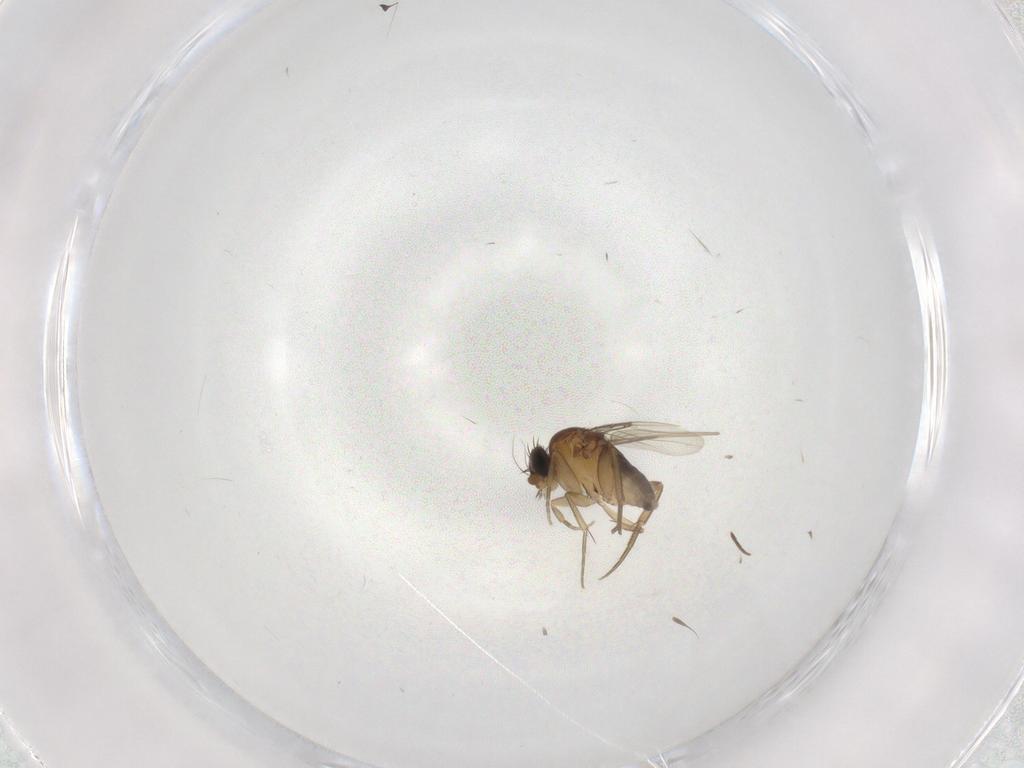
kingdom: Animalia
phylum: Arthropoda
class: Insecta
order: Diptera
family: Phoridae
